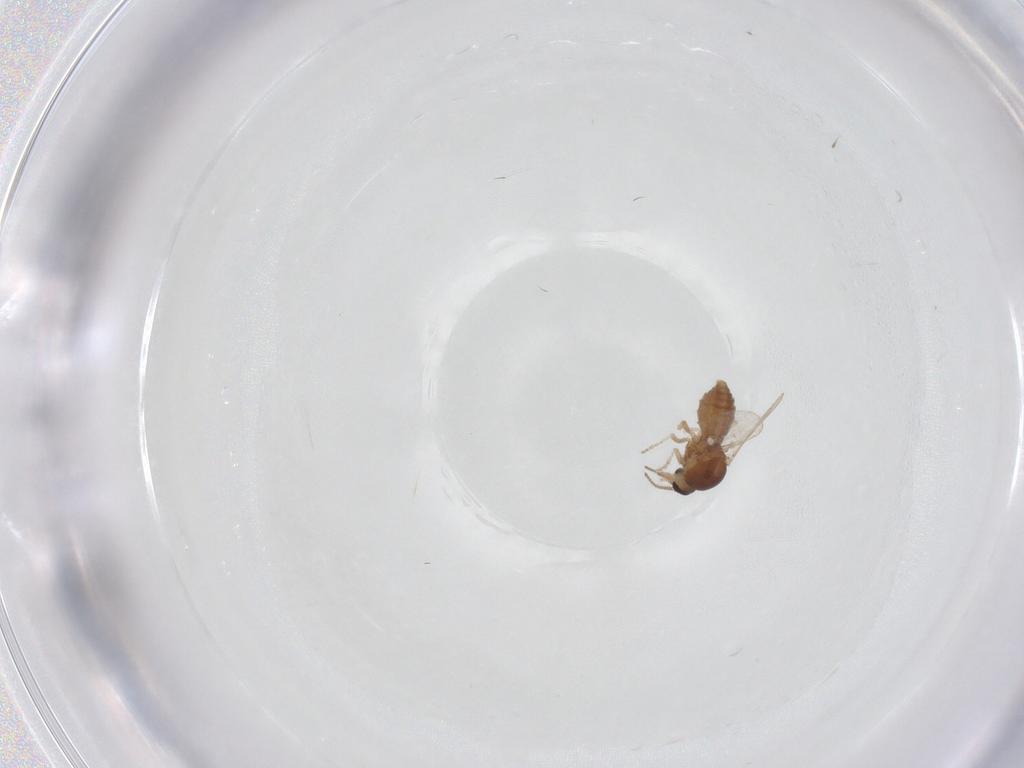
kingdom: Animalia
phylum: Arthropoda
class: Insecta
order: Diptera
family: Ceratopogonidae
